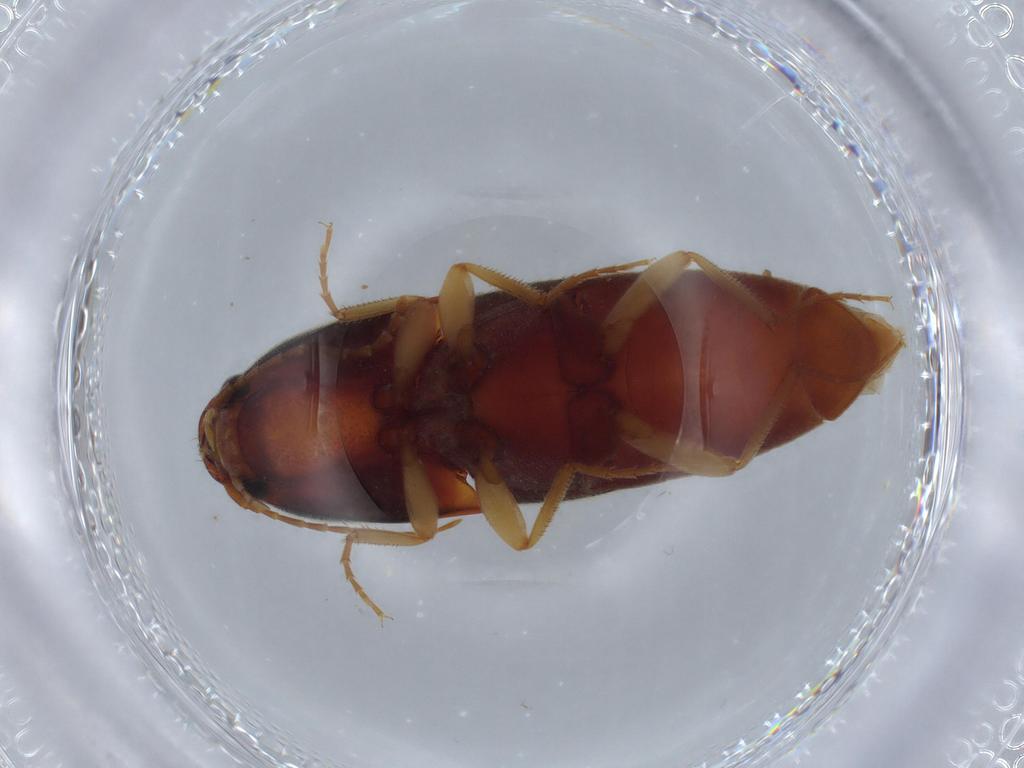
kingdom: Animalia
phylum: Arthropoda
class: Insecta
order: Coleoptera
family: Elateridae
